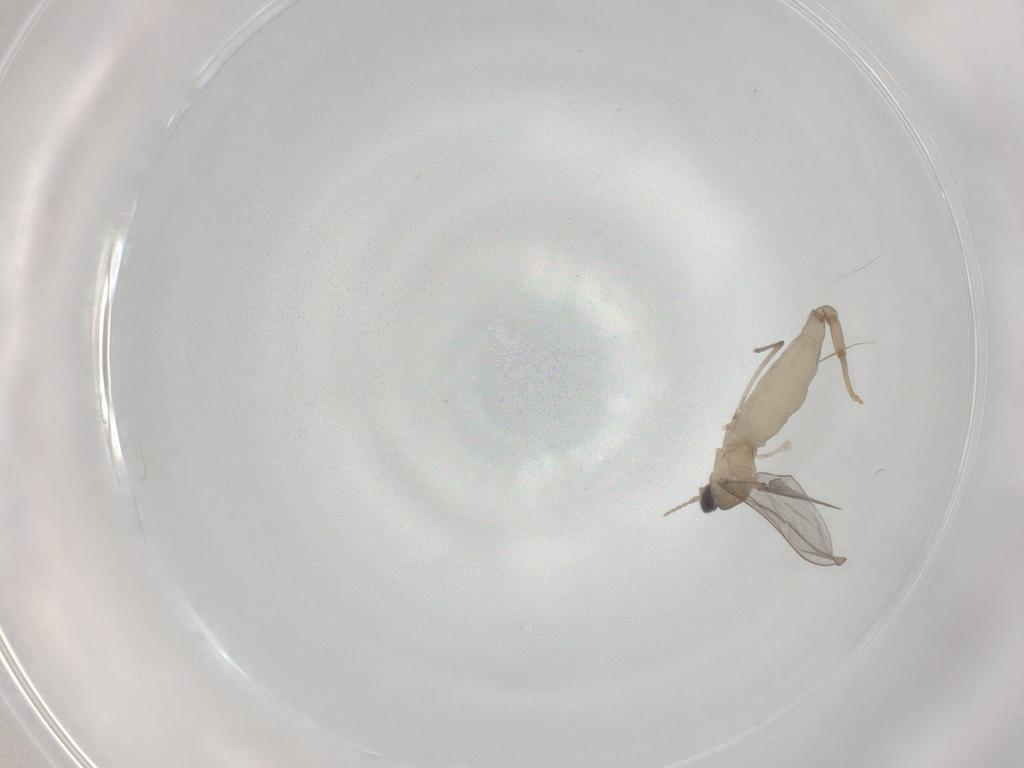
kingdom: Animalia
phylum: Arthropoda
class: Insecta
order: Diptera
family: Cecidomyiidae
